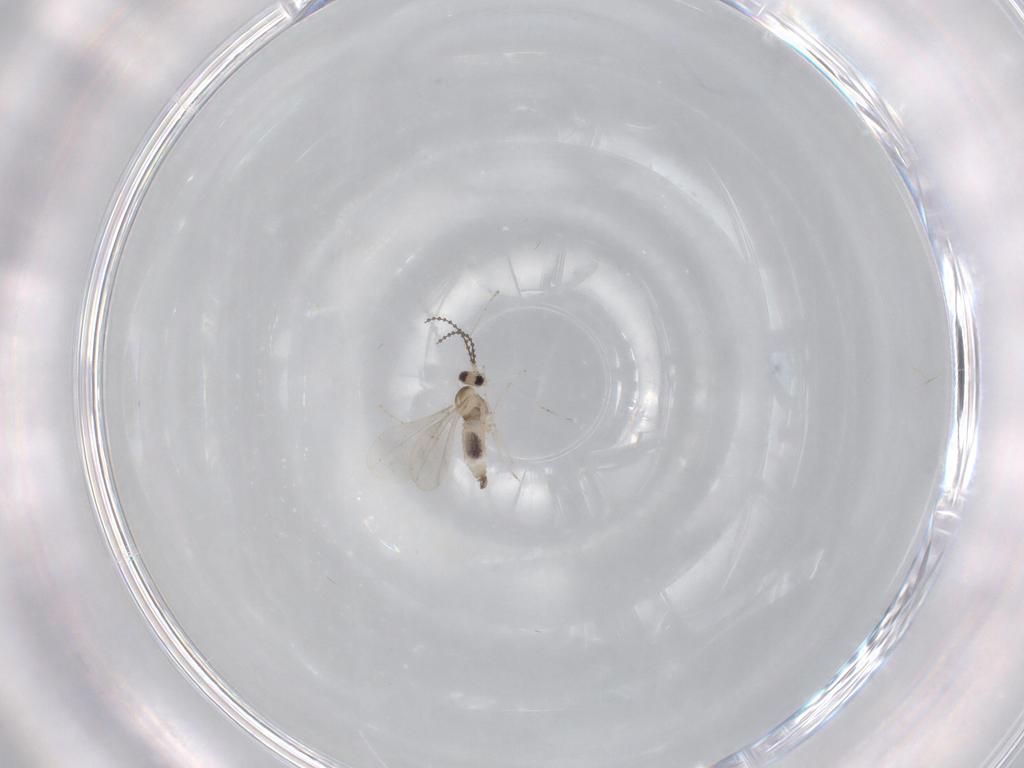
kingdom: Animalia
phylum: Arthropoda
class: Insecta
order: Diptera
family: Cecidomyiidae
